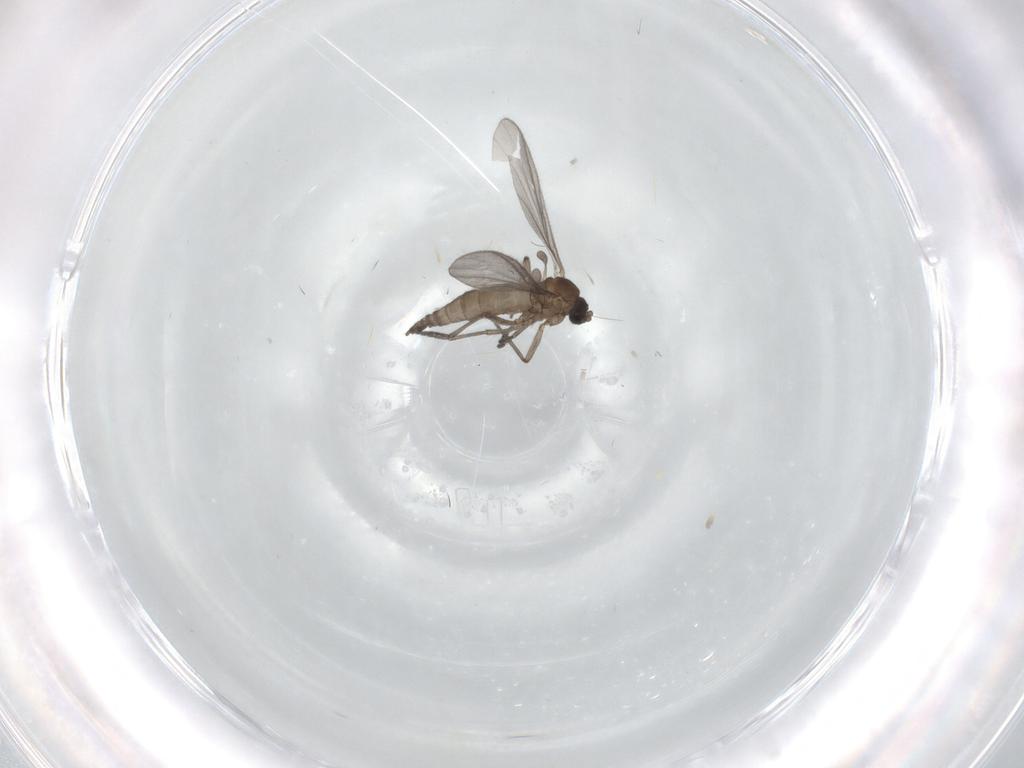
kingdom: Animalia
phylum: Arthropoda
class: Insecta
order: Diptera
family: Sciaridae
